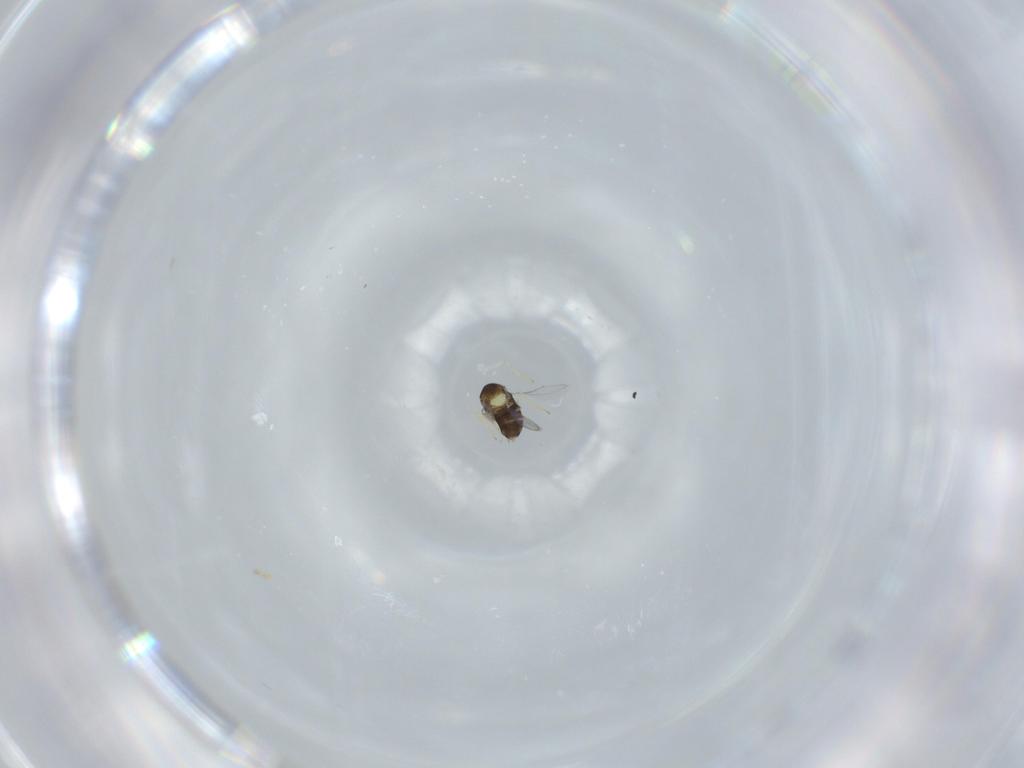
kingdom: Animalia
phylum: Arthropoda
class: Insecta
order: Hymenoptera
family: Aphelinidae
